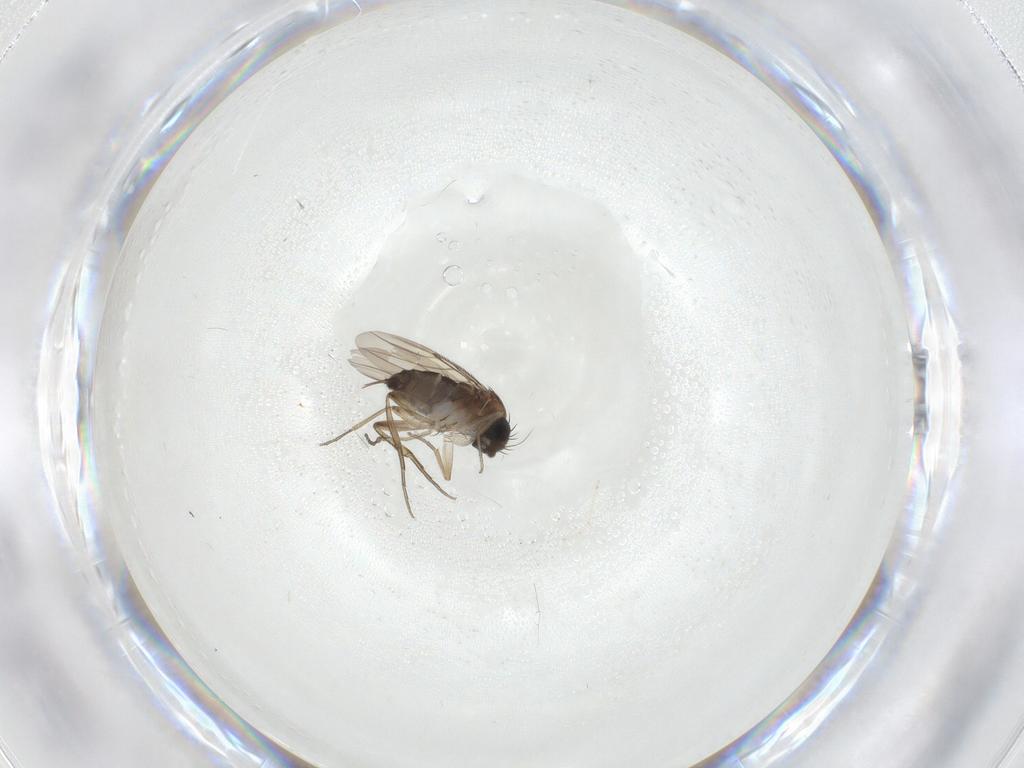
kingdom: Animalia
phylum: Arthropoda
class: Insecta
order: Diptera
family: Phoridae
